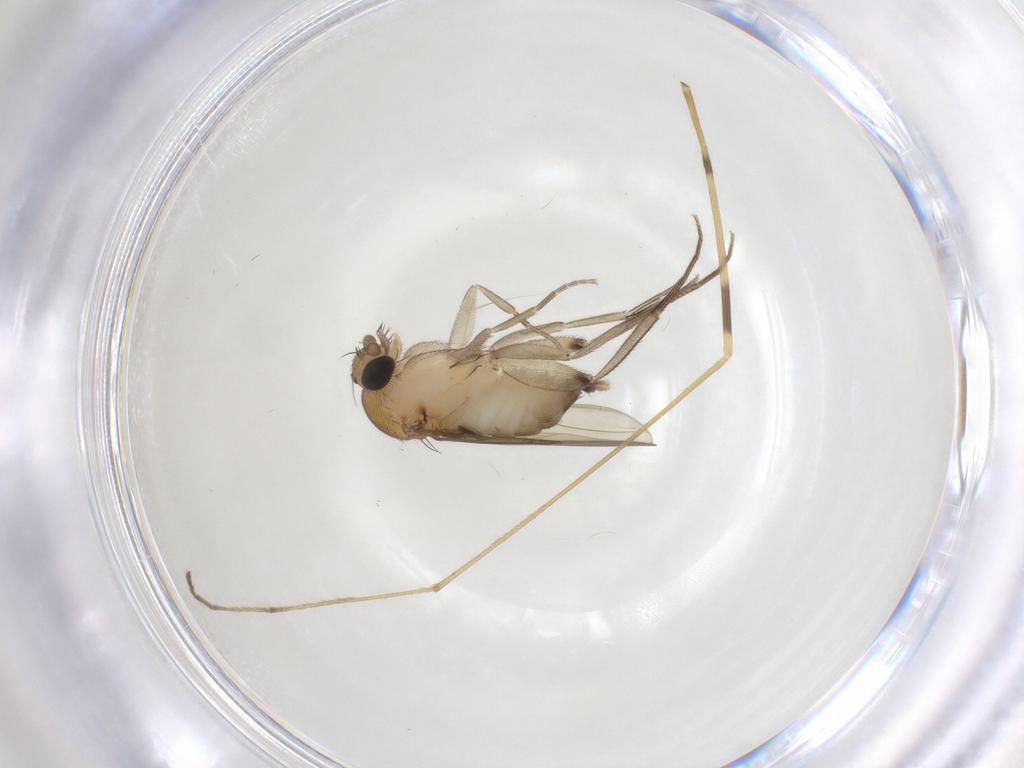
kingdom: Animalia
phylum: Arthropoda
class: Insecta
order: Diptera
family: Phoridae
